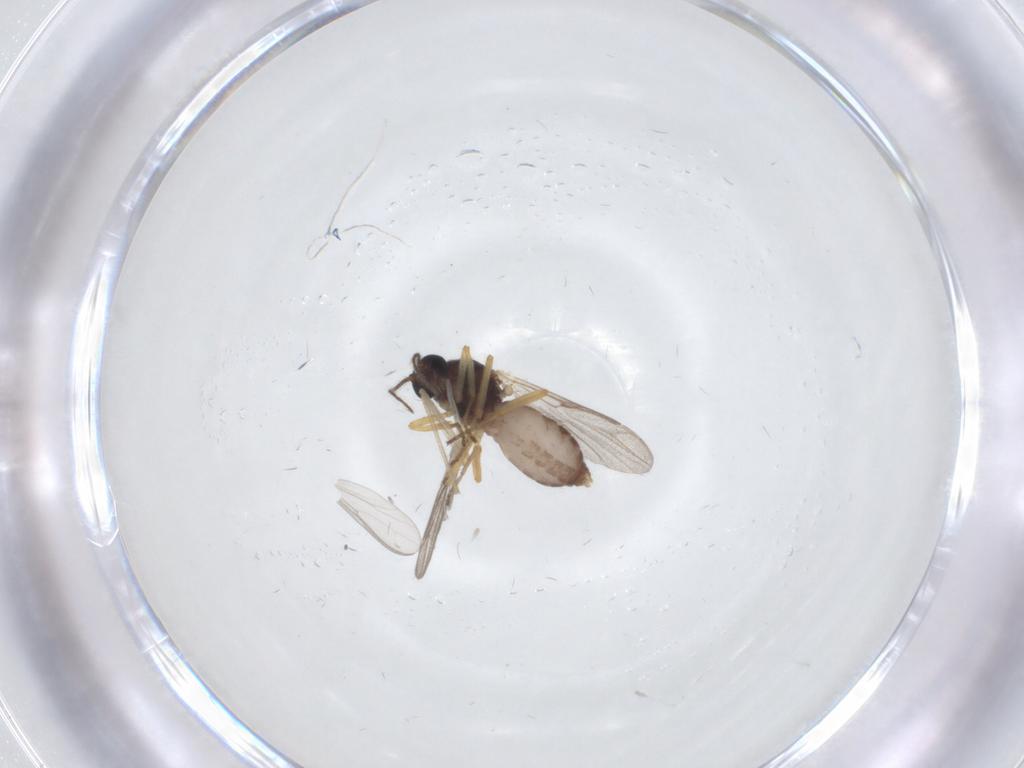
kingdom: Animalia
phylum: Arthropoda
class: Insecta
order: Diptera
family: Ceratopogonidae
